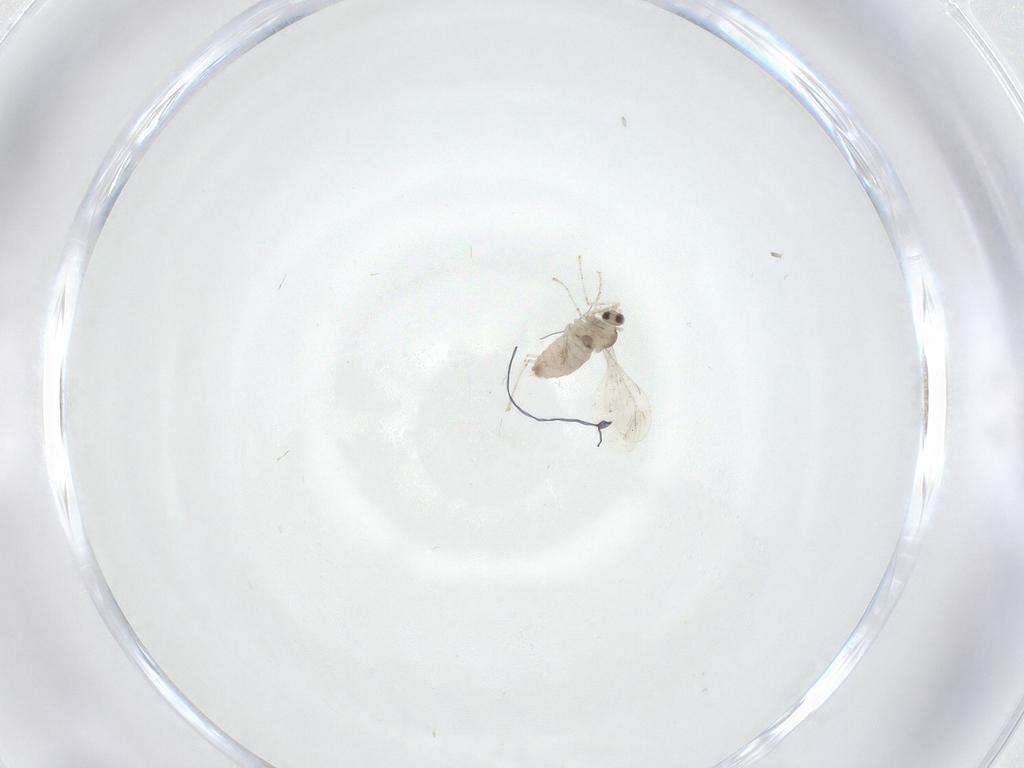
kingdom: Animalia
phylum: Arthropoda
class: Insecta
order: Diptera
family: Cecidomyiidae
